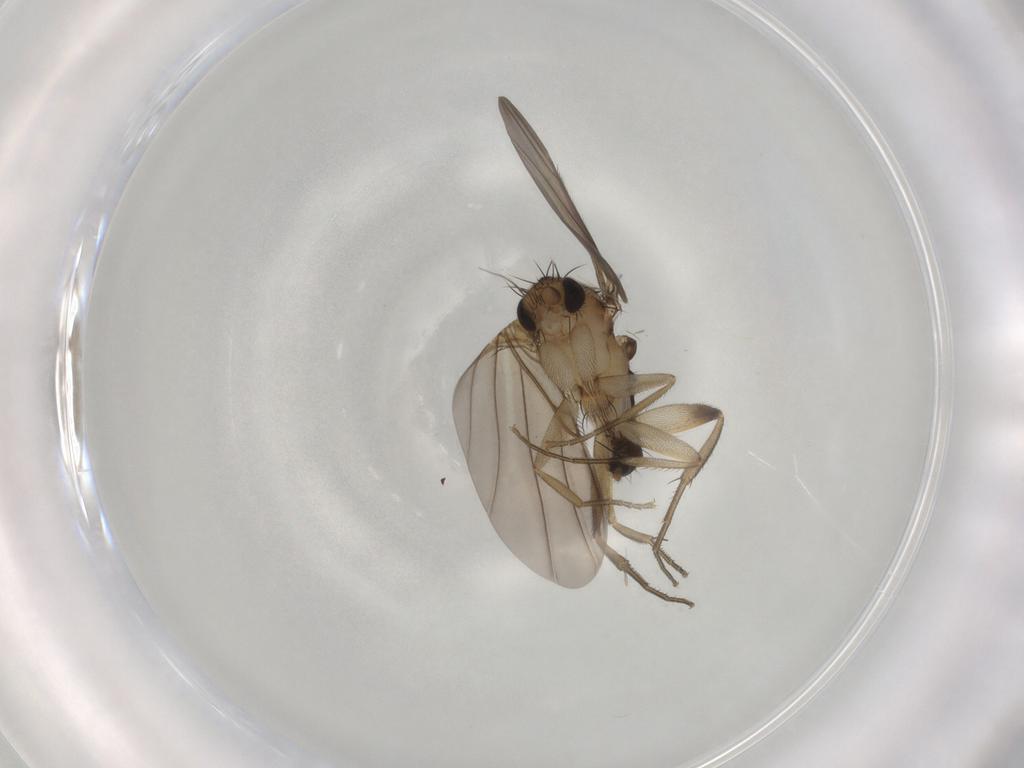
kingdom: Animalia
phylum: Arthropoda
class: Insecta
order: Diptera
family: Phoridae
